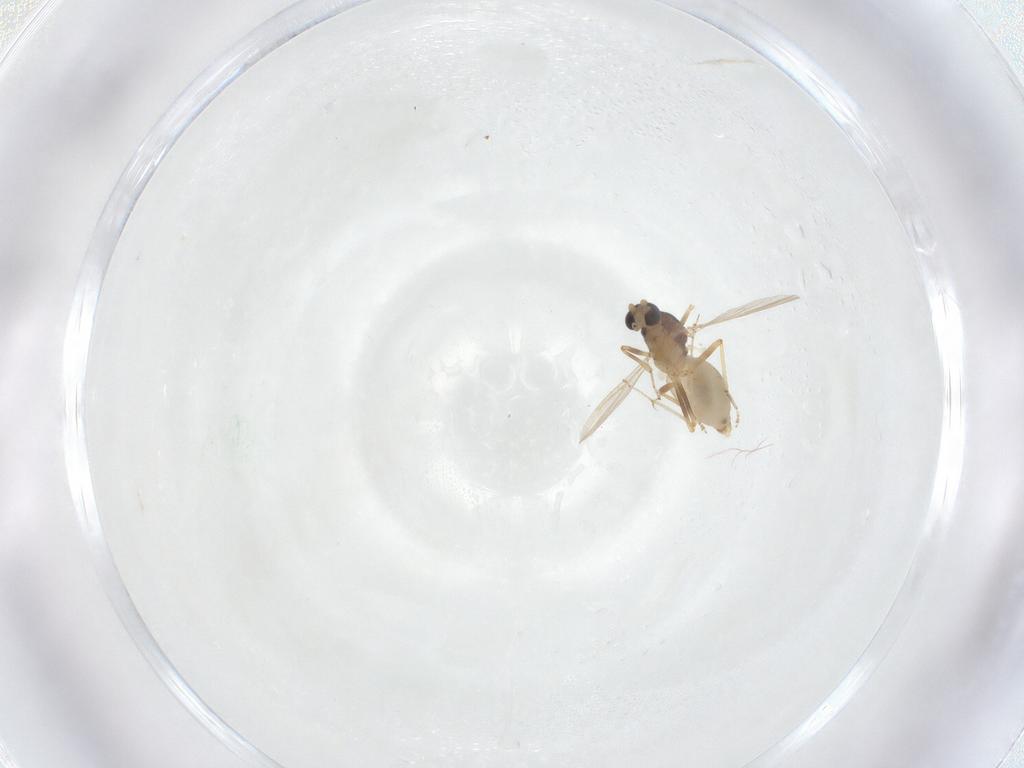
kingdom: Animalia
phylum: Arthropoda
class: Insecta
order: Diptera
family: Ceratopogonidae
